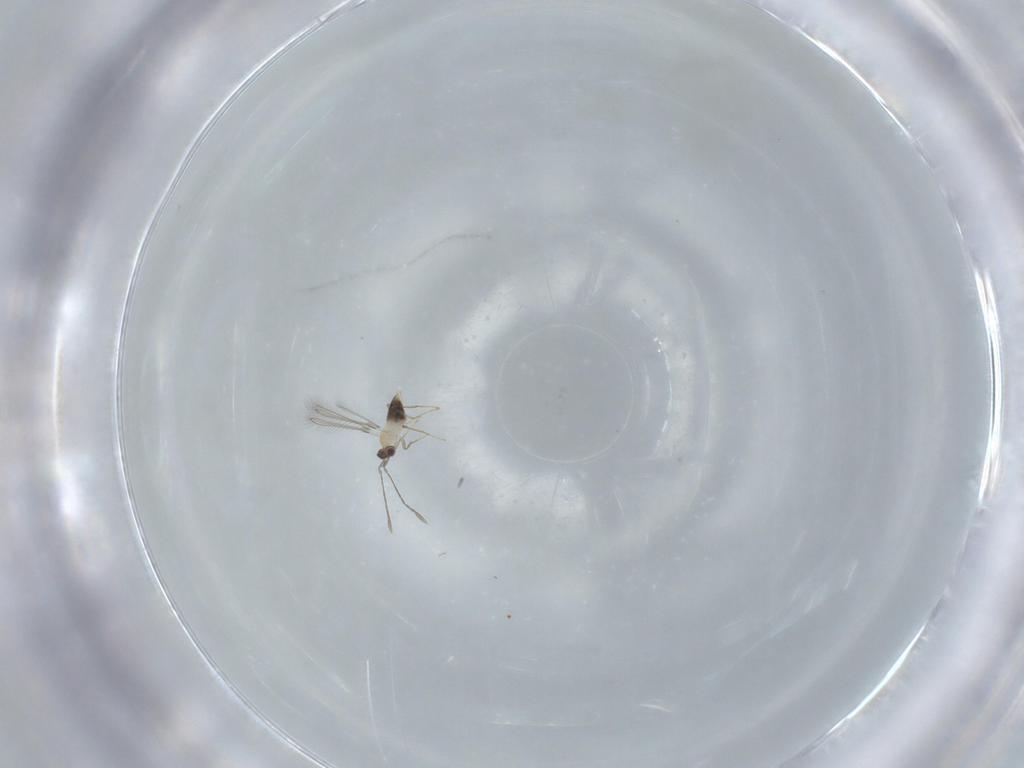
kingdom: Animalia
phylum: Arthropoda
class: Insecta
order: Hymenoptera
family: Mymaridae
